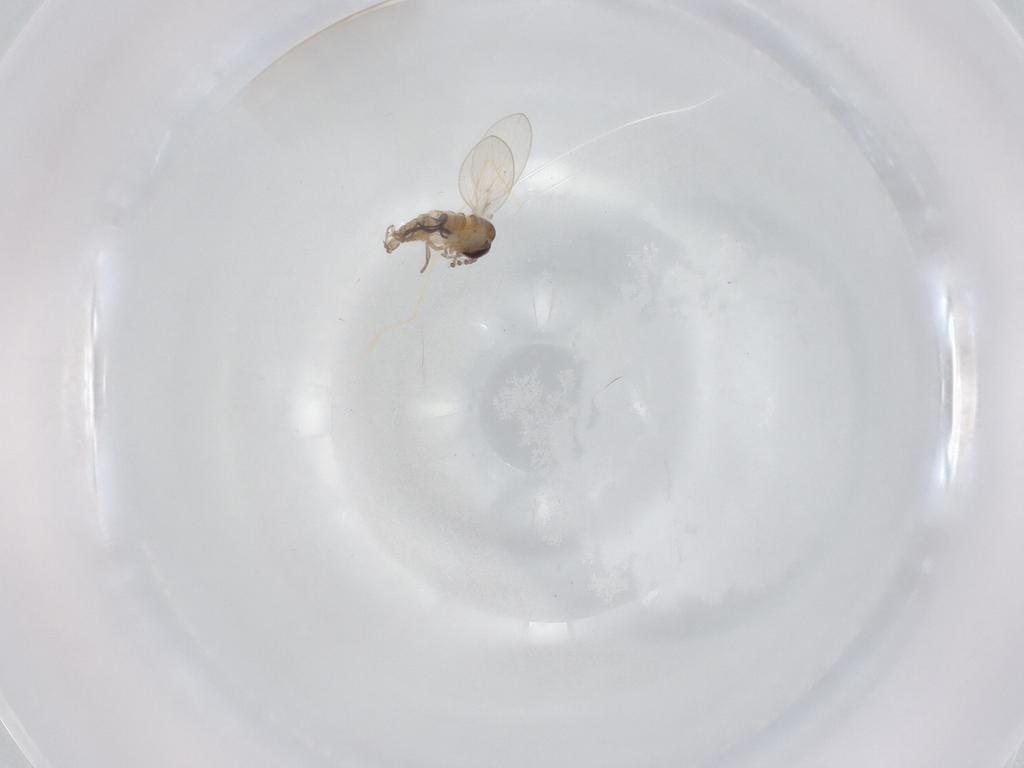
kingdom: Animalia
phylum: Arthropoda
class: Insecta
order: Diptera
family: Psychodidae
